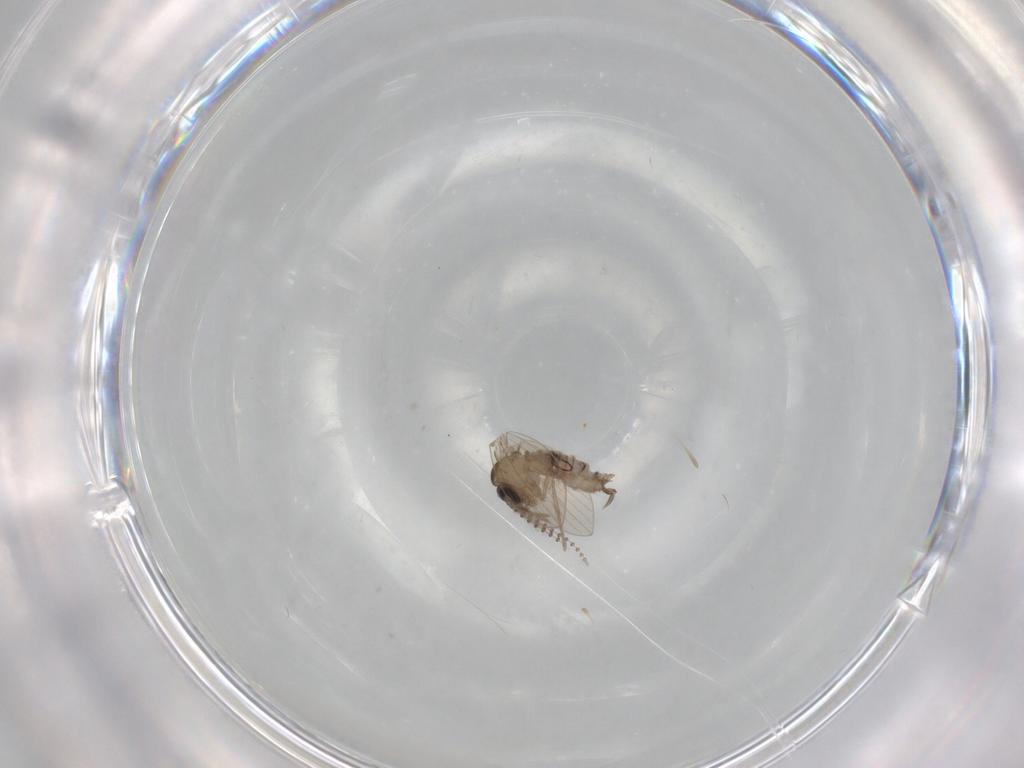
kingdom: Animalia
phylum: Arthropoda
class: Insecta
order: Diptera
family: Psychodidae
